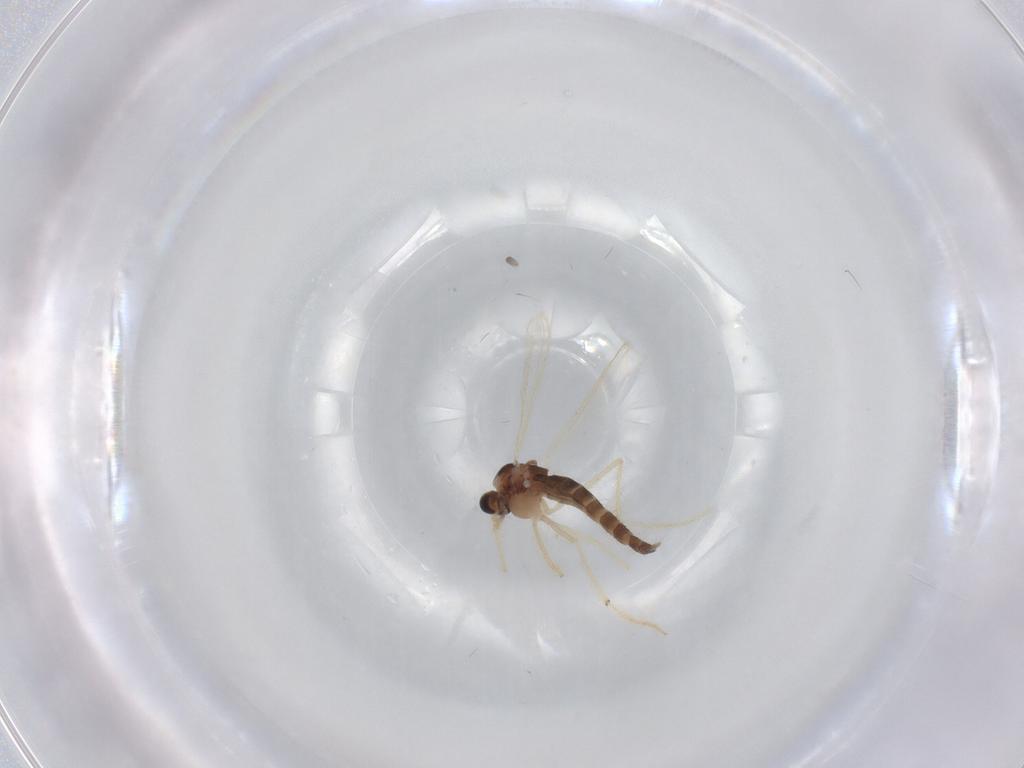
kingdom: Animalia
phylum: Arthropoda
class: Insecta
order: Diptera
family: Chironomidae
